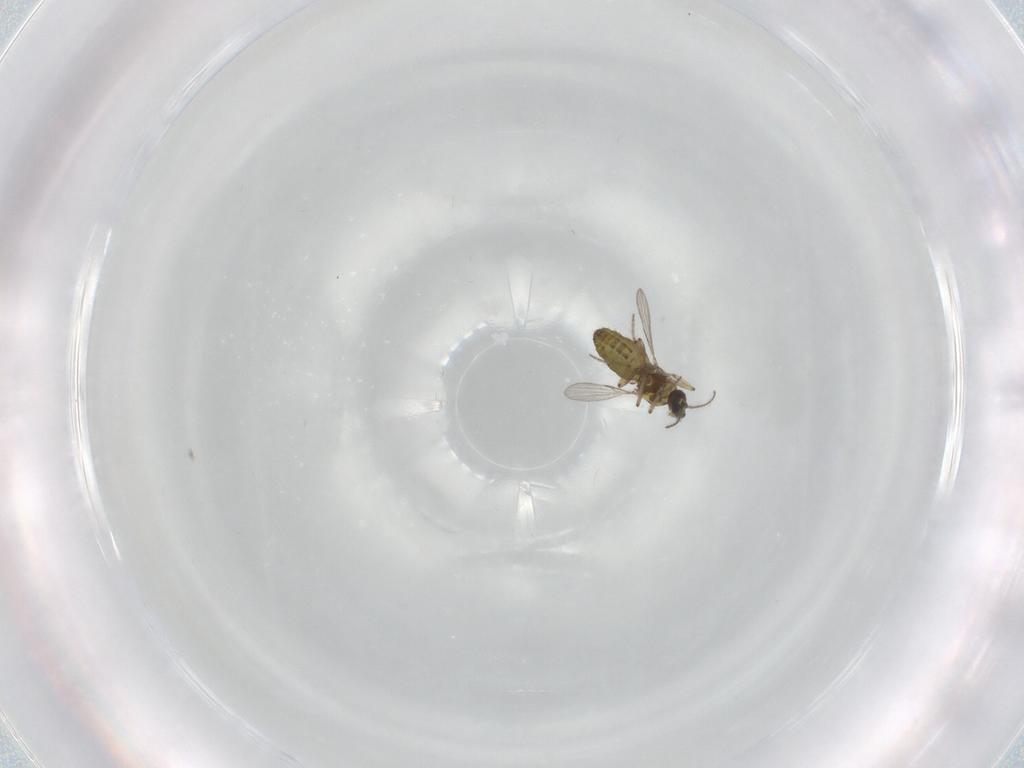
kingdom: Animalia
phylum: Arthropoda
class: Insecta
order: Diptera
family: Ceratopogonidae
